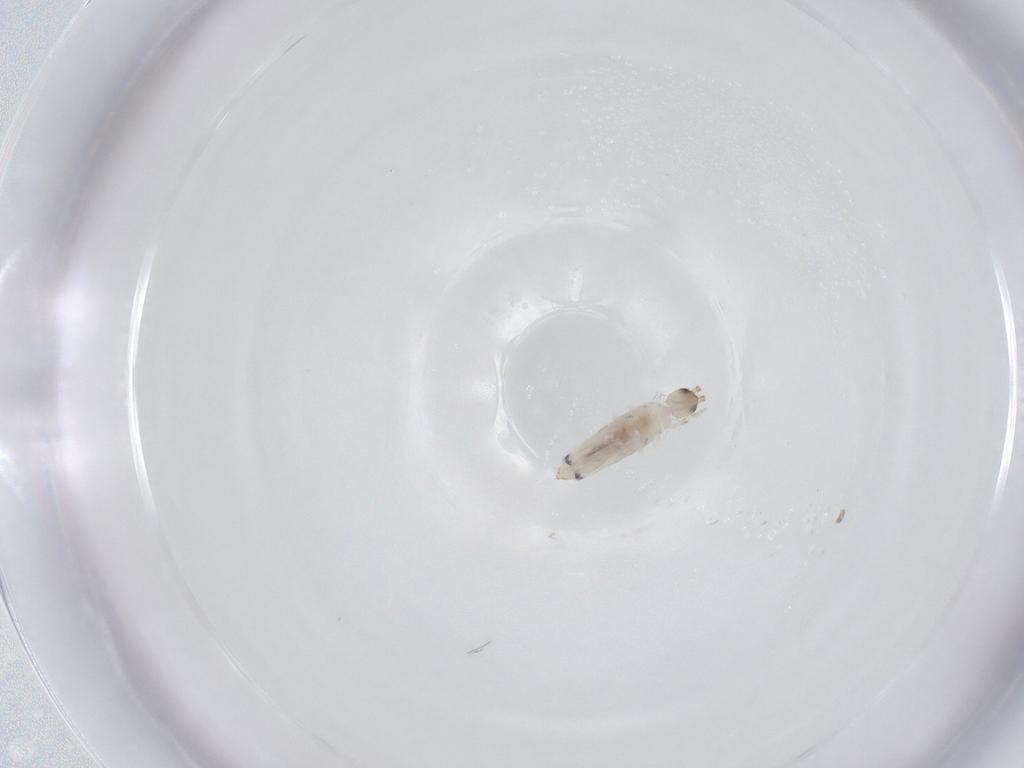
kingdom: Animalia
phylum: Arthropoda
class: Collembola
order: Entomobryomorpha
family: Entomobryidae
